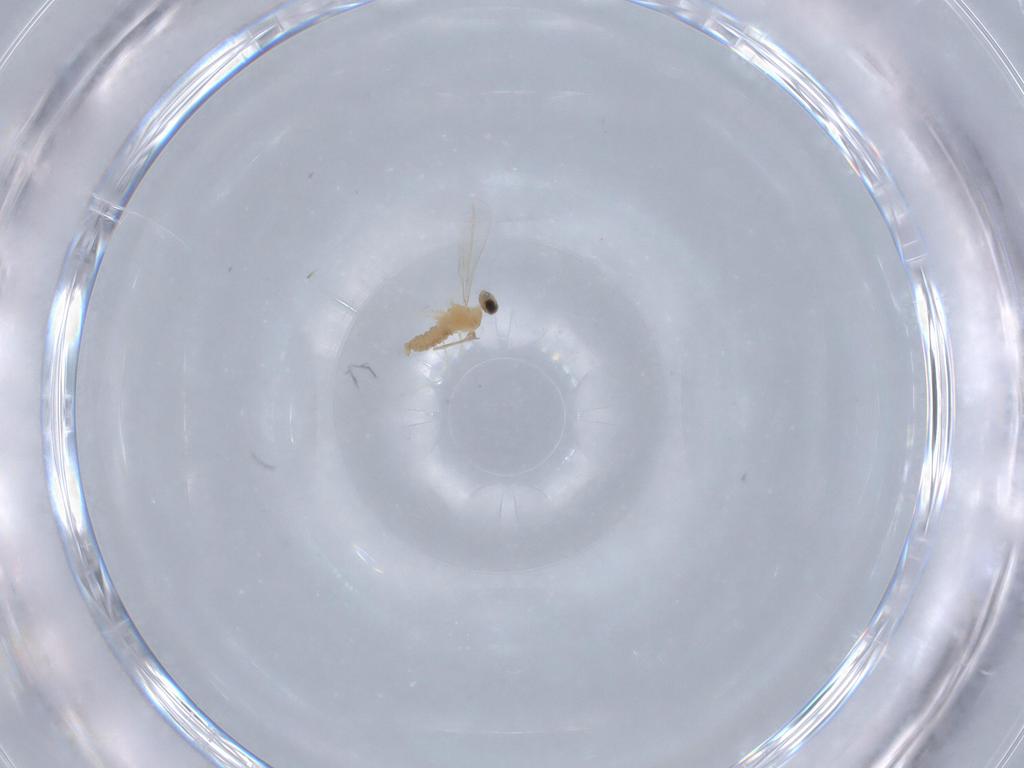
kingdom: Animalia
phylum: Arthropoda
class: Insecta
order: Diptera
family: Cecidomyiidae
